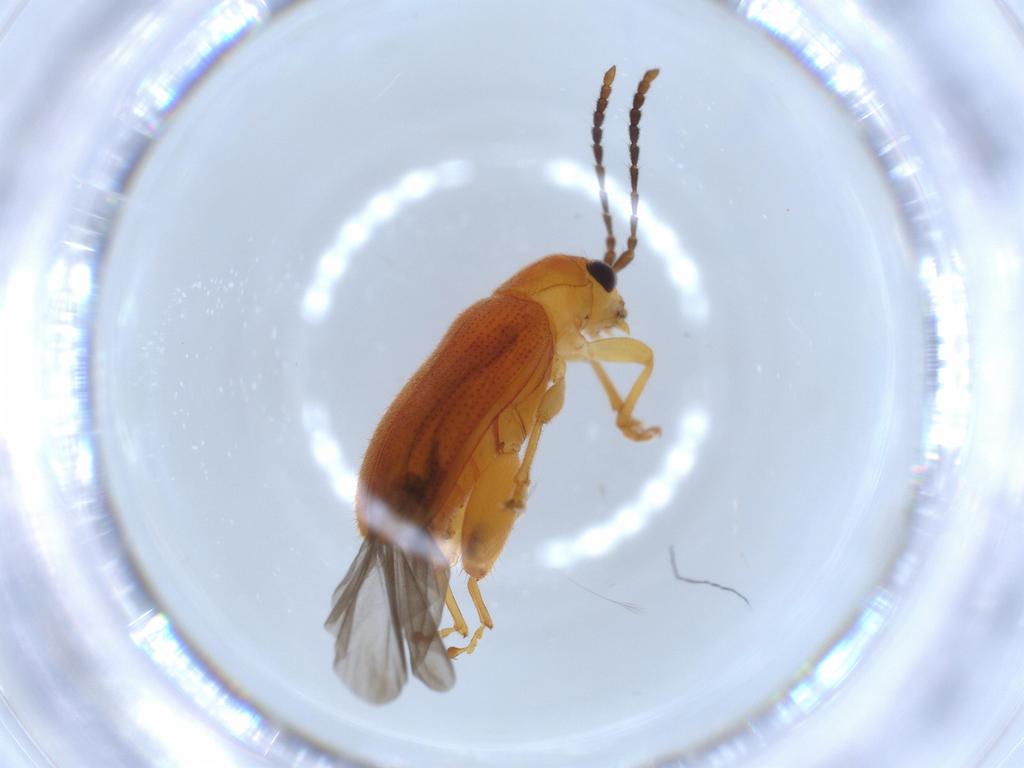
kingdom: Animalia
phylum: Arthropoda
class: Insecta
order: Coleoptera
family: Chrysomelidae
